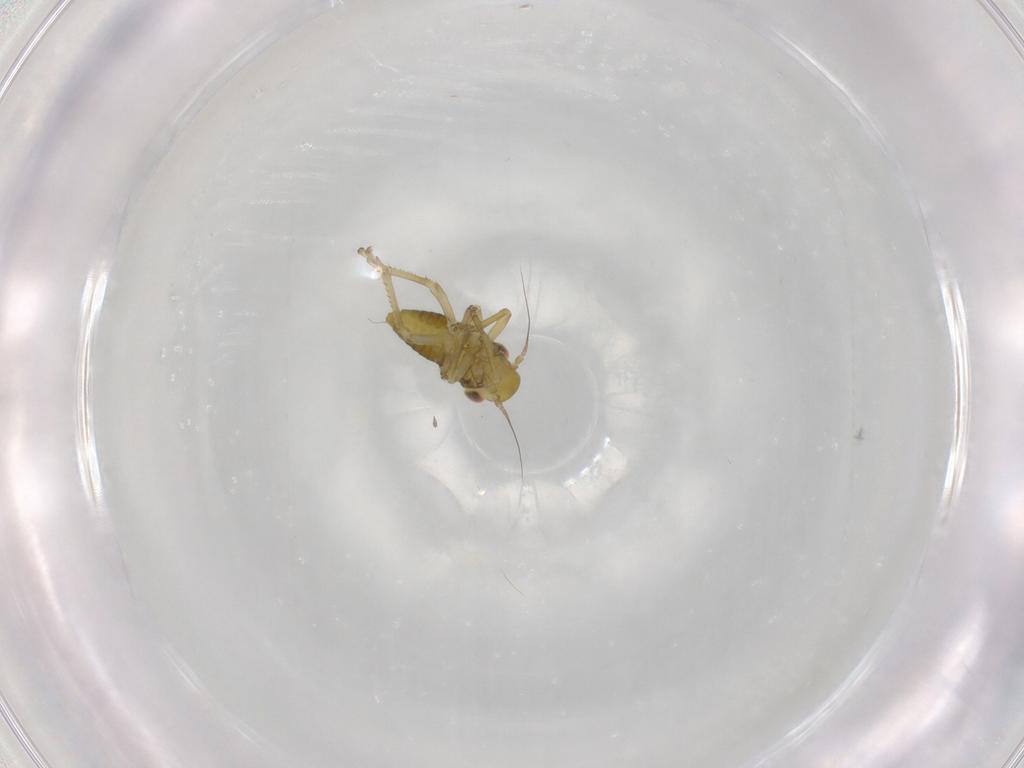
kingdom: Animalia
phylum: Arthropoda
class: Insecta
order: Hemiptera
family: Cicadellidae
